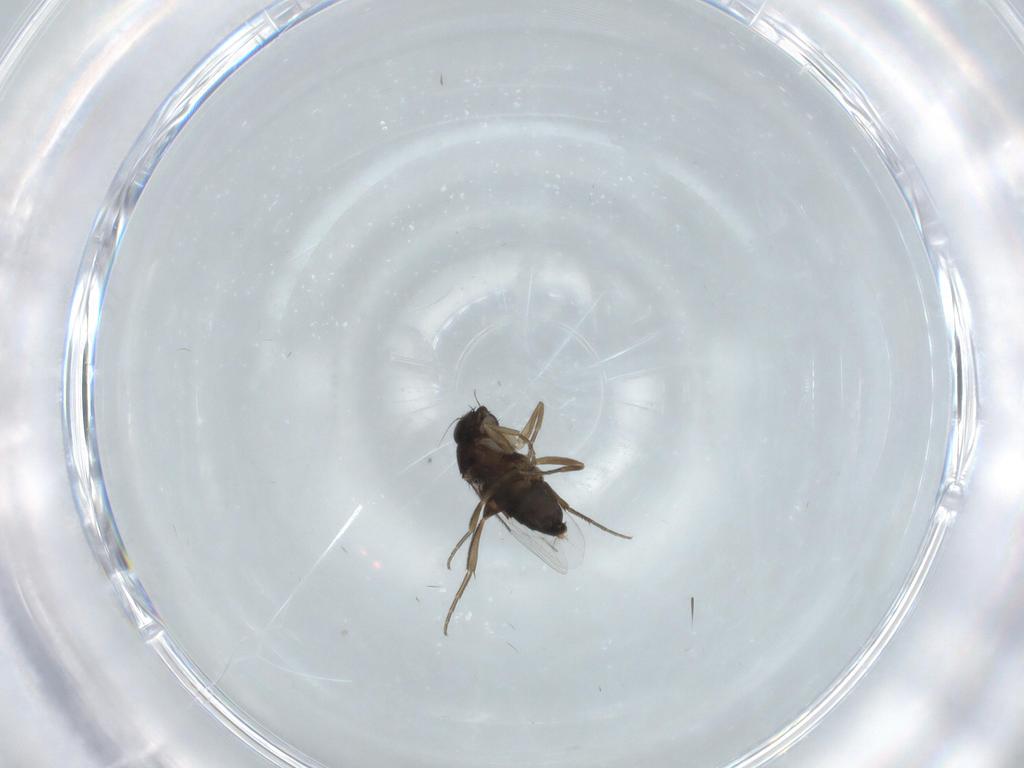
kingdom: Animalia
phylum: Arthropoda
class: Insecta
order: Diptera
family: Phoridae
